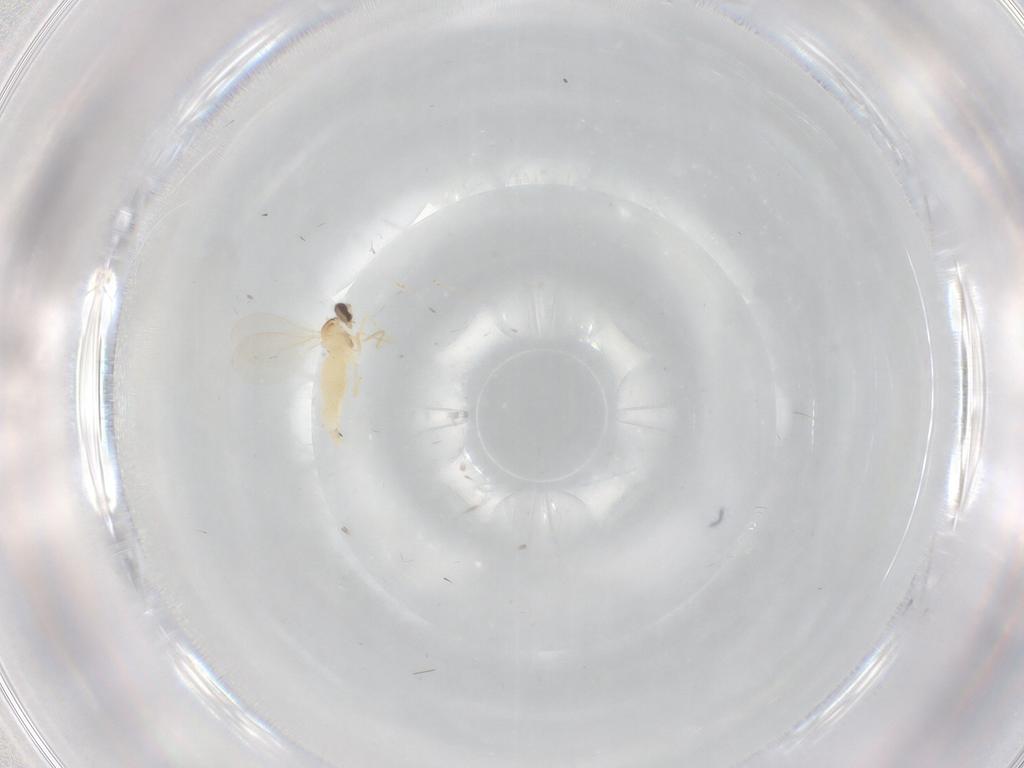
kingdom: Animalia
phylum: Arthropoda
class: Insecta
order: Diptera
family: Cecidomyiidae
